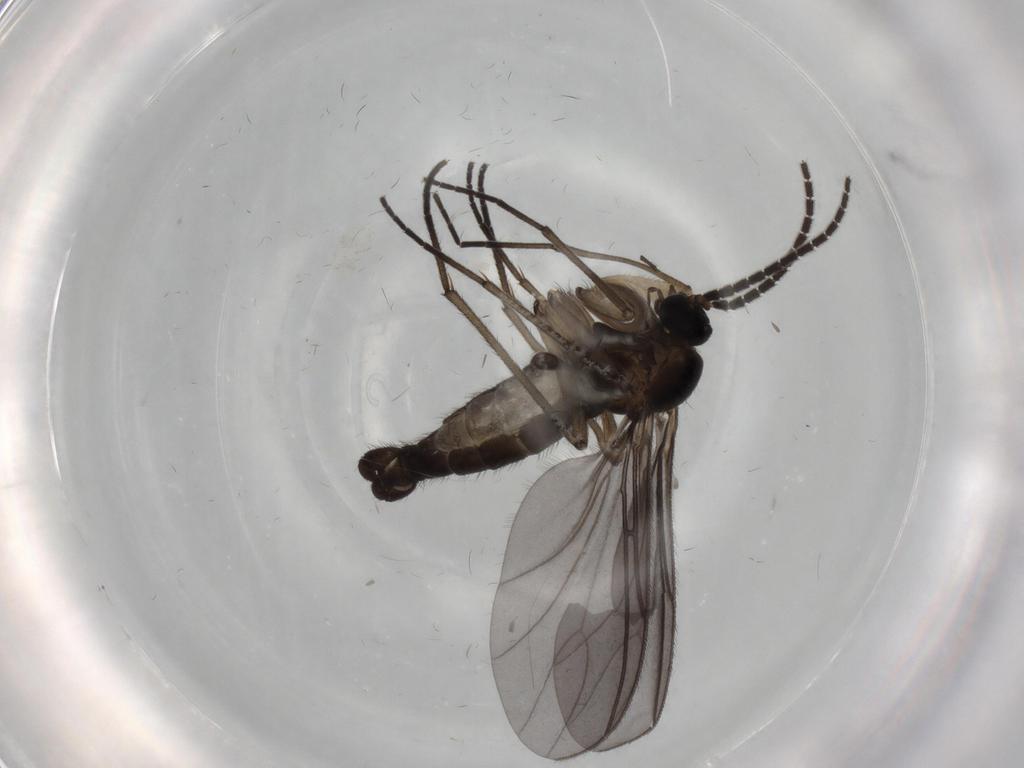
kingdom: Animalia
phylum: Arthropoda
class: Insecta
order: Diptera
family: Sciaridae
